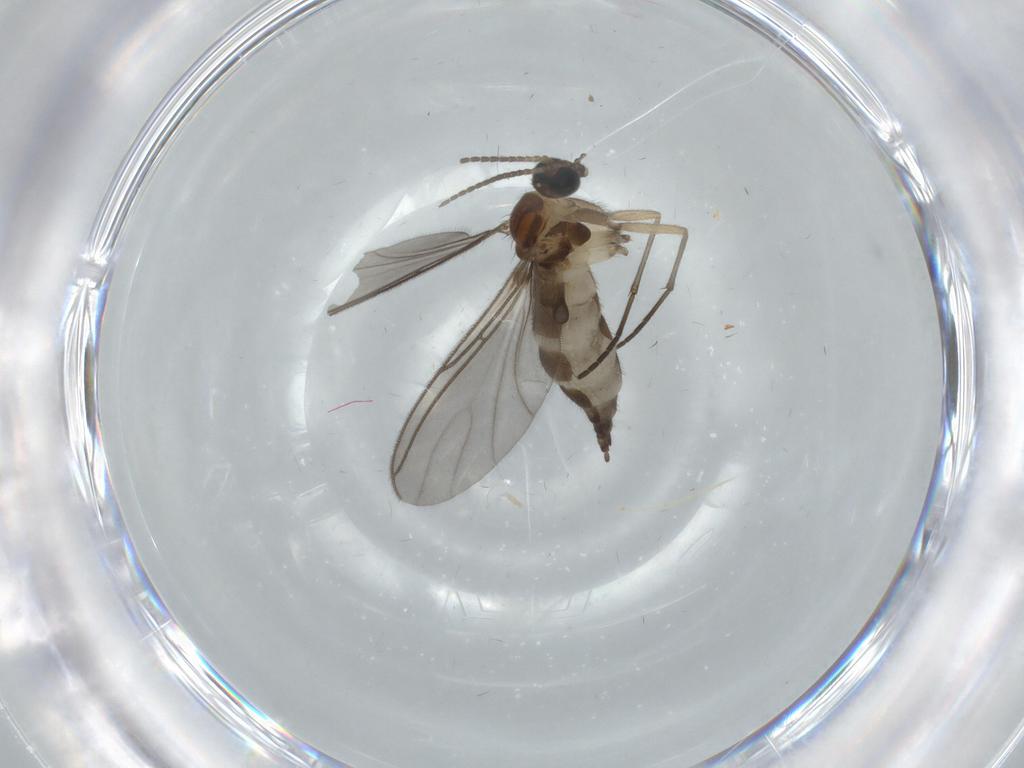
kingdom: Animalia
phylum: Arthropoda
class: Insecta
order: Diptera
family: Sciaridae
